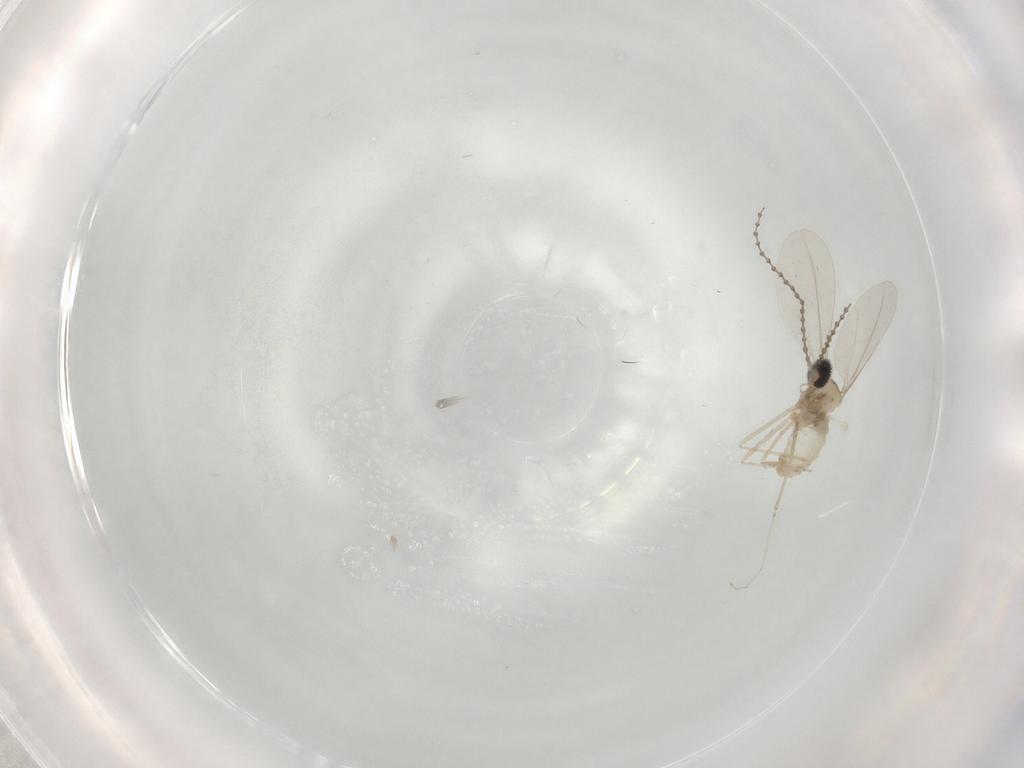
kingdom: Animalia
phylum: Arthropoda
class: Insecta
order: Diptera
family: Cecidomyiidae
